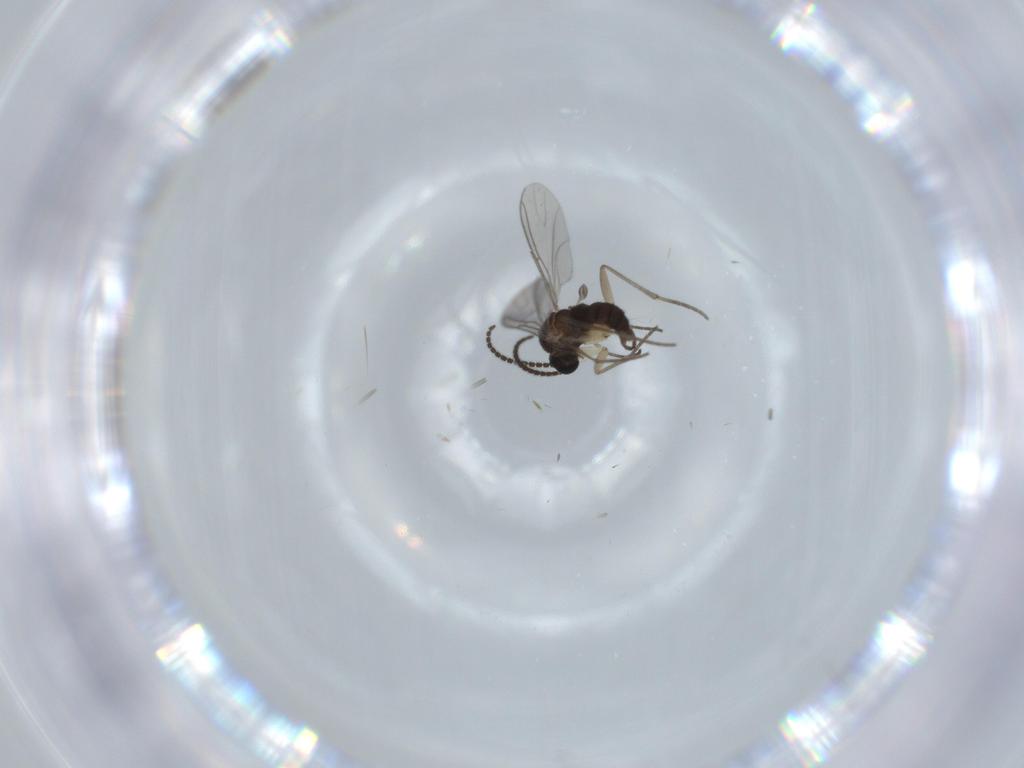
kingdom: Animalia
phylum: Arthropoda
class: Insecta
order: Diptera
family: Sciaridae
